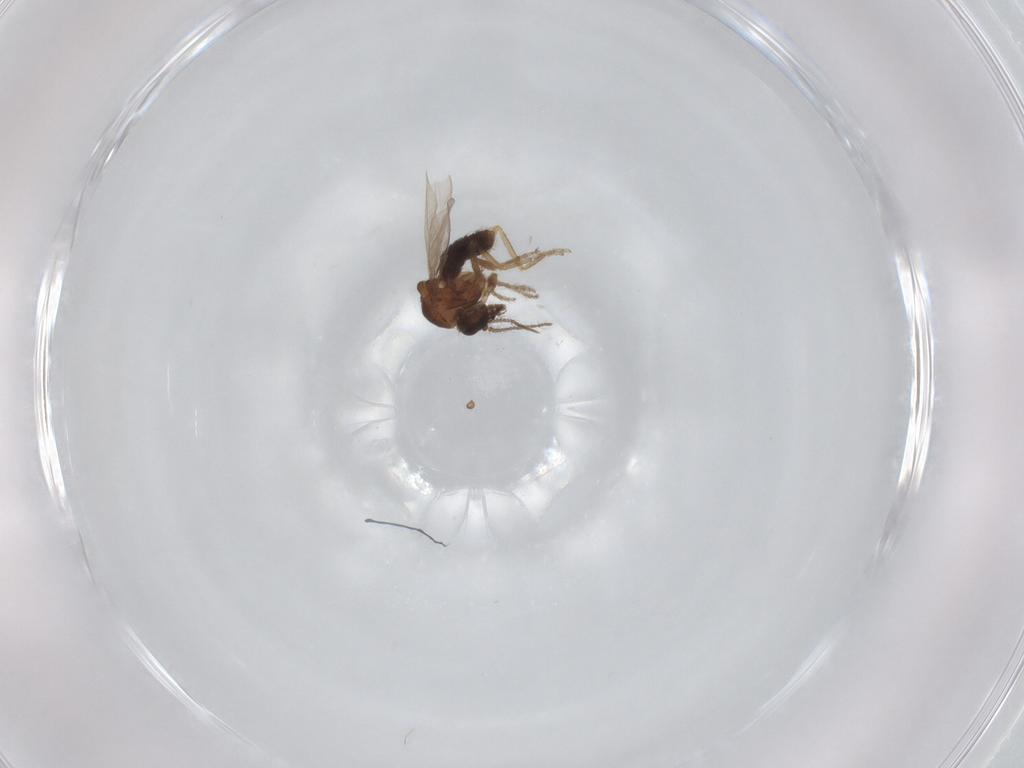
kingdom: Animalia
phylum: Arthropoda
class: Insecta
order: Diptera
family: Ceratopogonidae
